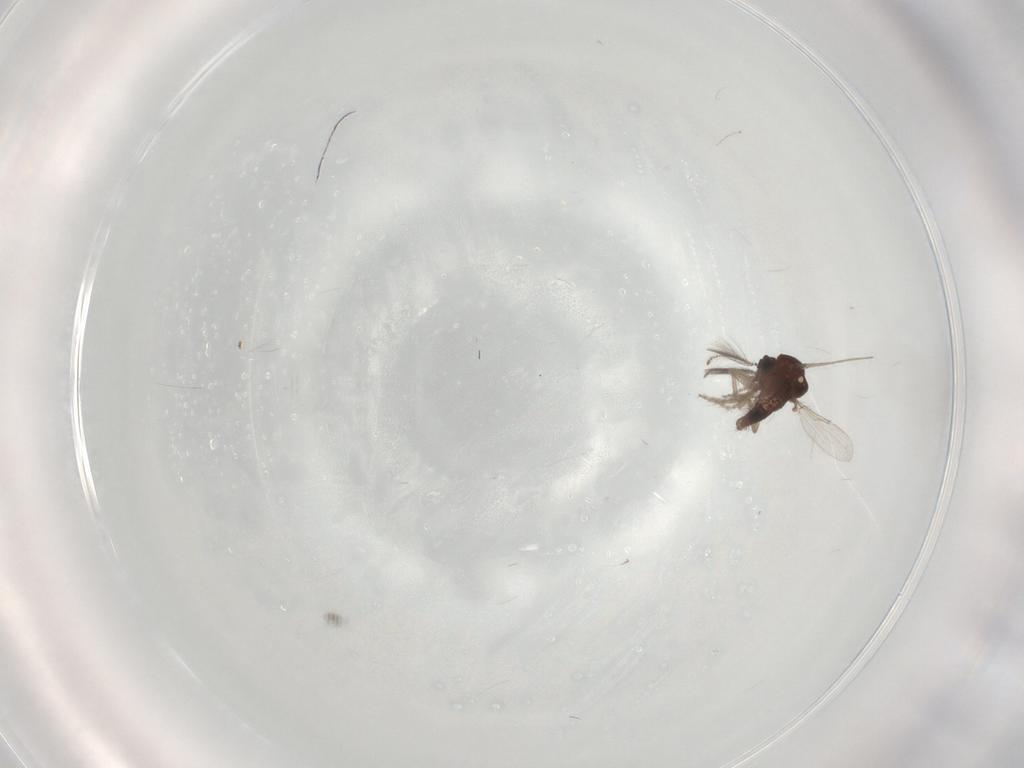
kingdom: Animalia
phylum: Arthropoda
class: Insecta
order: Diptera
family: Ceratopogonidae
